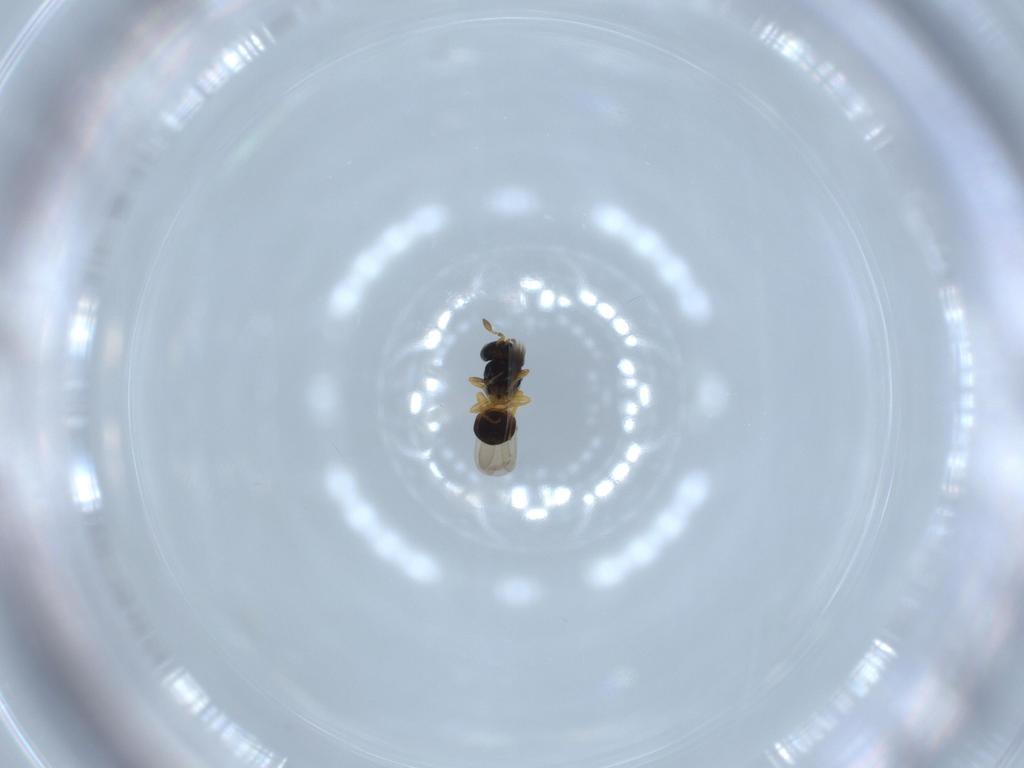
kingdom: Animalia
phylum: Arthropoda
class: Insecta
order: Hymenoptera
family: Scelionidae
